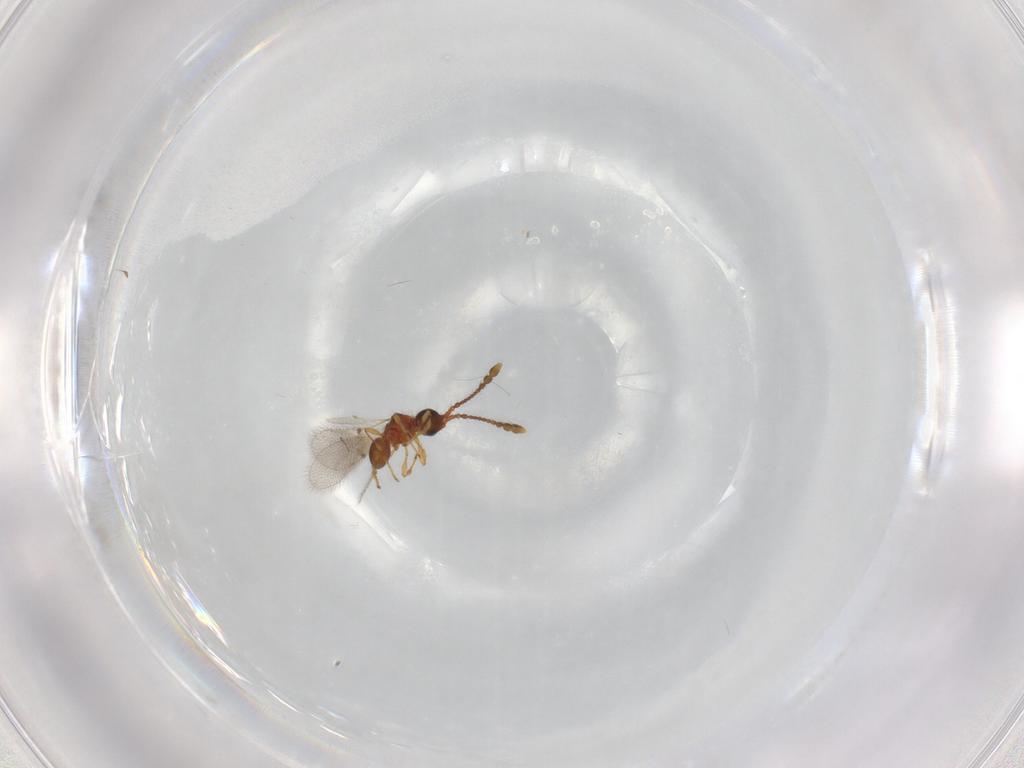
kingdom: Animalia
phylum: Arthropoda
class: Insecta
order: Hymenoptera
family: Diapriidae
